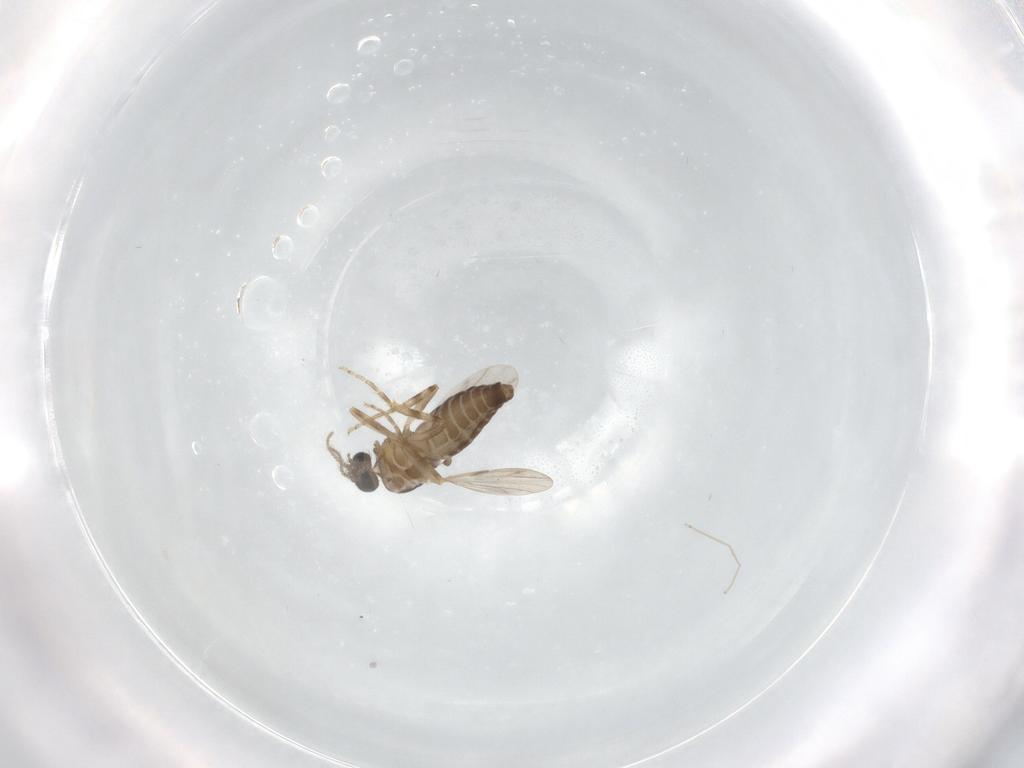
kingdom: Animalia
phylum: Arthropoda
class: Insecta
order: Diptera
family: Ceratopogonidae
